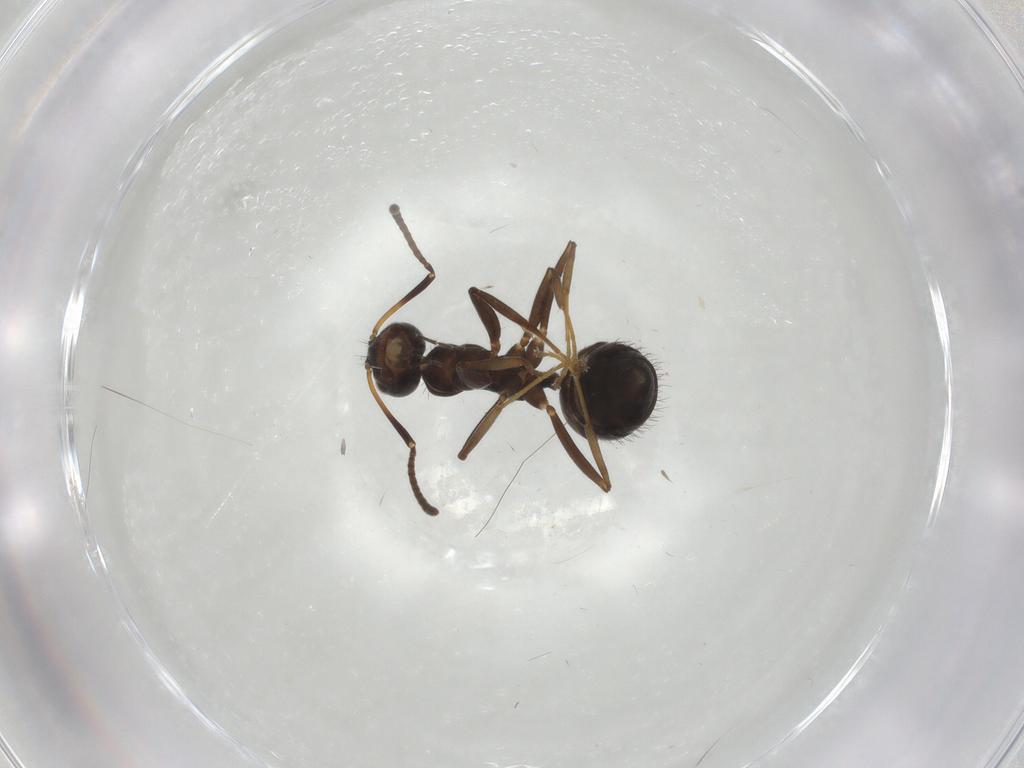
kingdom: Animalia
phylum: Arthropoda
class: Insecta
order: Hymenoptera
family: Formicidae
